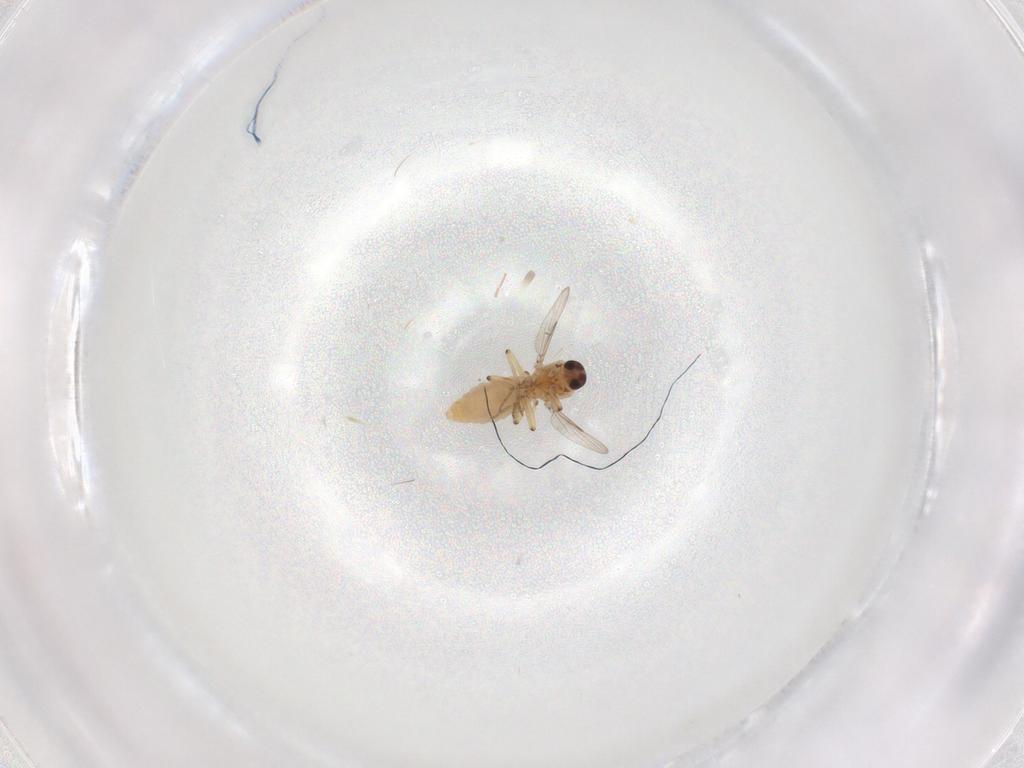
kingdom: Animalia
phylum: Arthropoda
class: Insecta
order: Diptera
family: Ceratopogonidae
